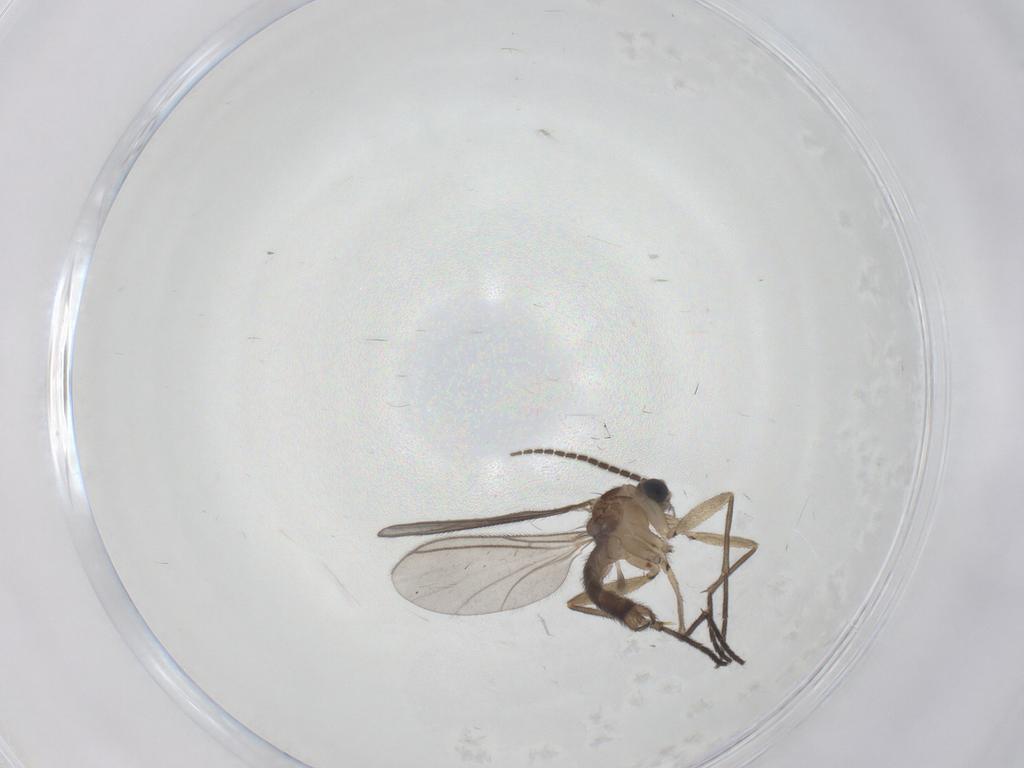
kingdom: Animalia
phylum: Arthropoda
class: Insecta
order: Diptera
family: Sciaridae
